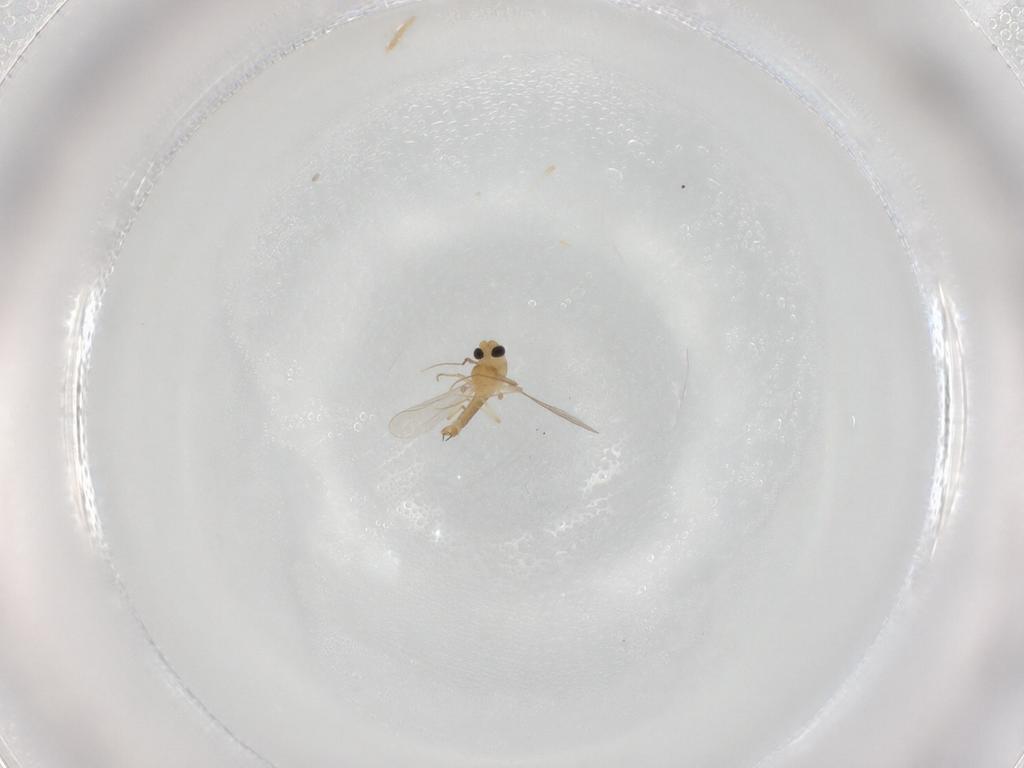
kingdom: Animalia
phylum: Arthropoda
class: Insecta
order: Diptera
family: Chironomidae
